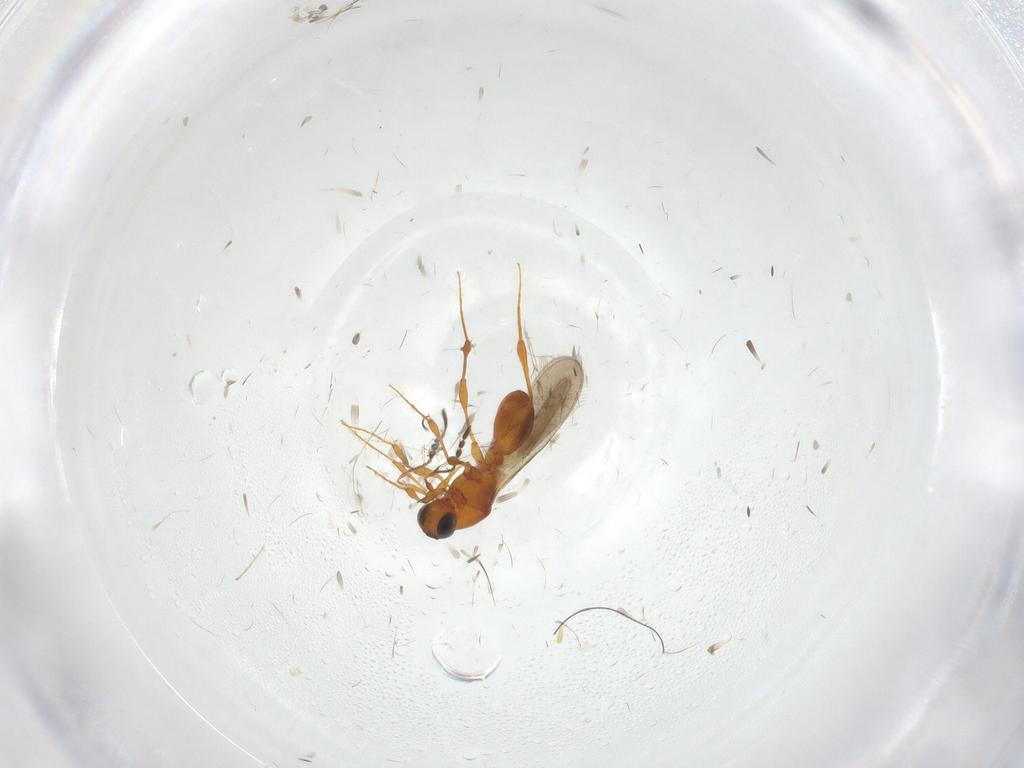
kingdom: Animalia
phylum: Arthropoda
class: Insecta
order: Hymenoptera
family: Platygastridae
